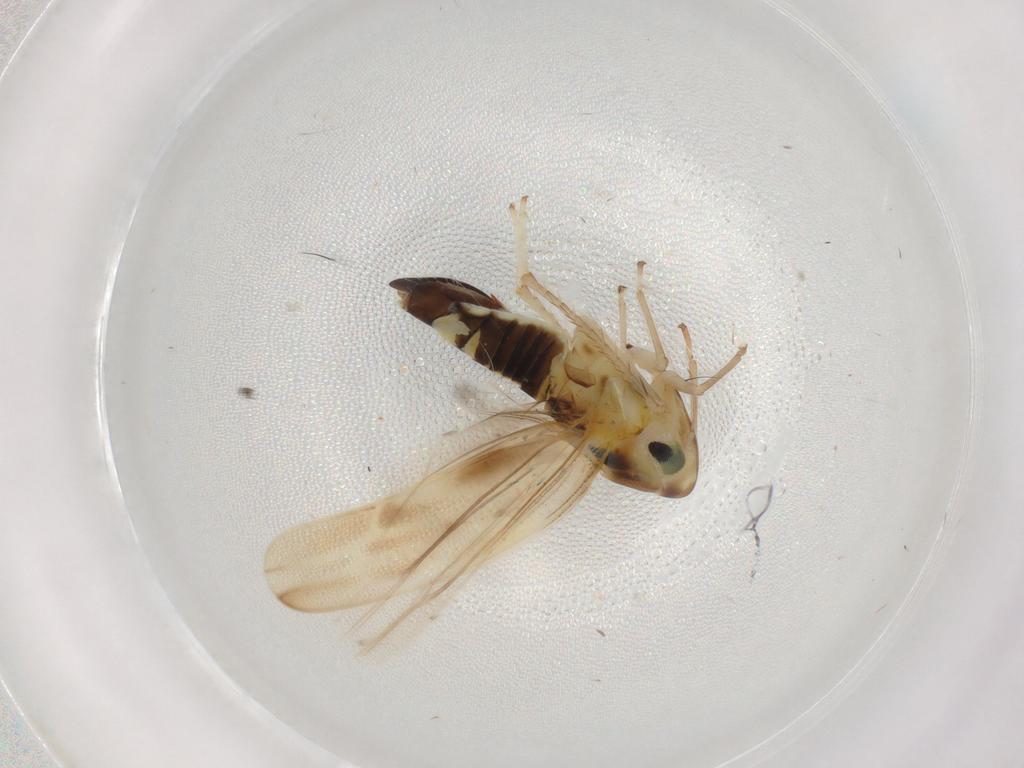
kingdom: Animalia
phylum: Arthropoda
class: Insecta
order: Hemiptera
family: Cicadellidae
